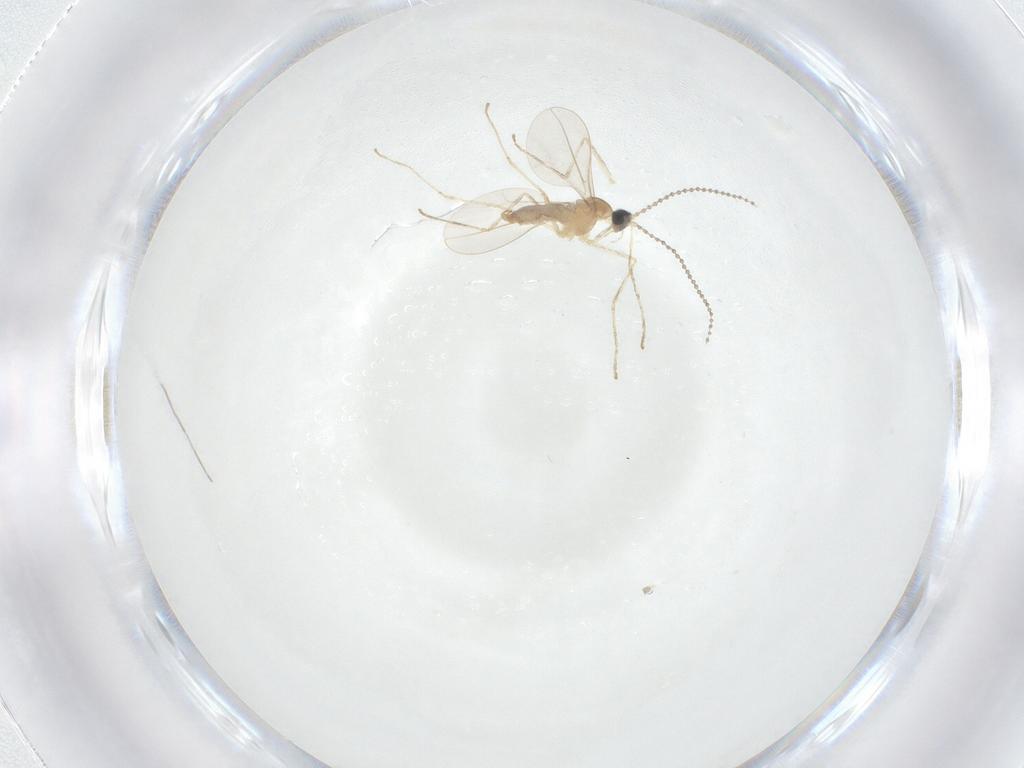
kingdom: Animalia
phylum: Arthropoda
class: Insecta
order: Diptera
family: Cecidomyiidae
